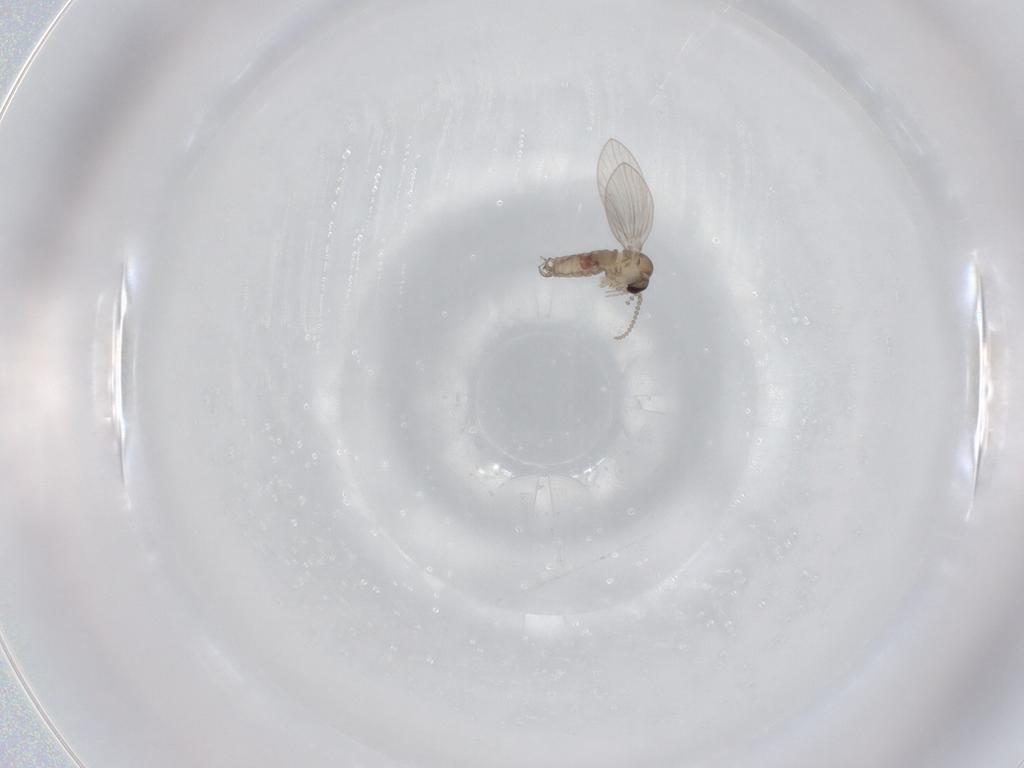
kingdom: Animalia
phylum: Arthropoda
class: Insecta
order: Diptera
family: Psychodidae
